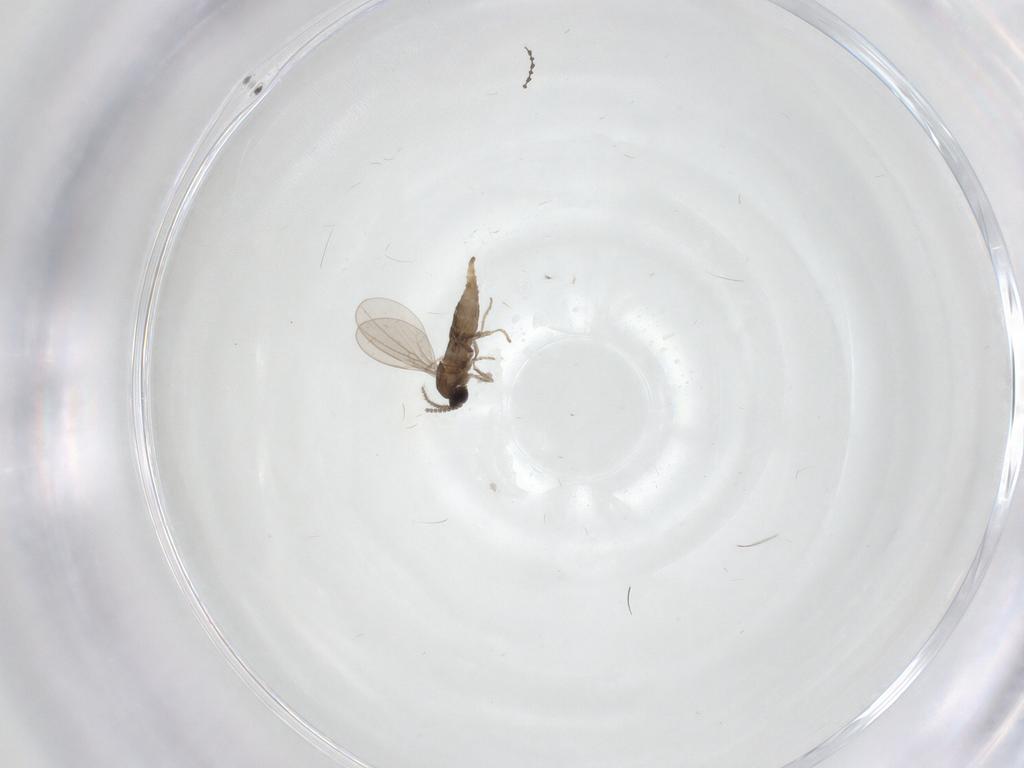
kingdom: Animalia
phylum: Arthropoda
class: Insecta
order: Diptera
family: Sciaridae
